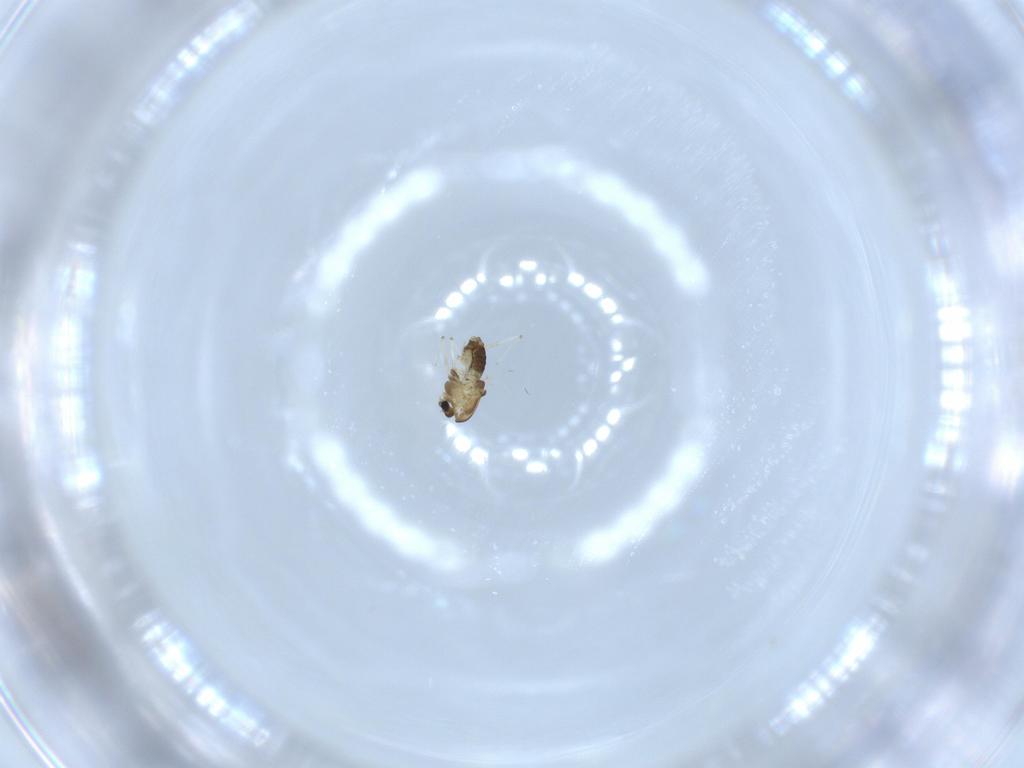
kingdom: Animalia
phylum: Arthropoda
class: Insecta
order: Diptera
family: Chironomidae
